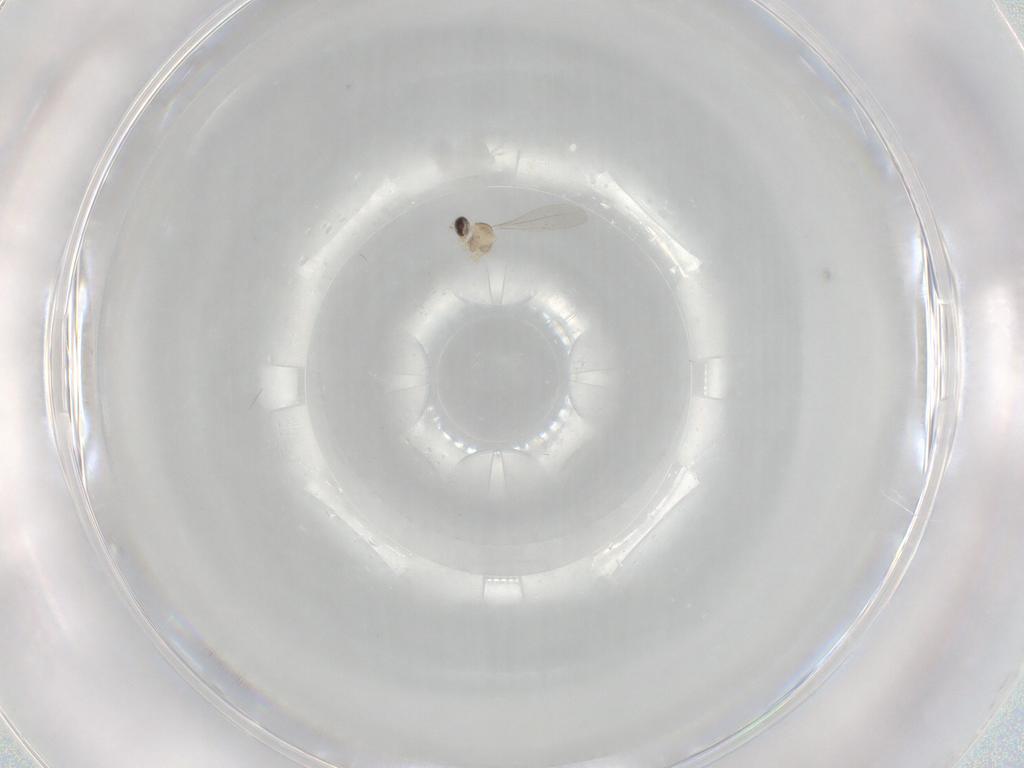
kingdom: Animalia
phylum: Arthropoda
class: Insecta
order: Diptera
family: Cecidomyiidae
